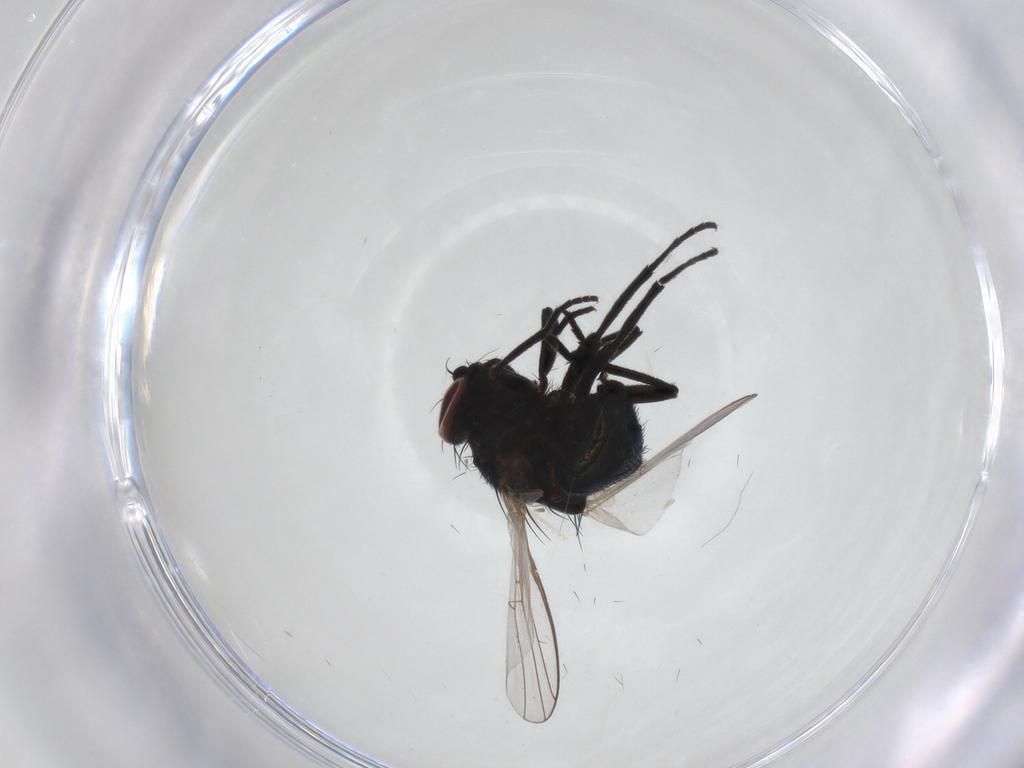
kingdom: Animalia
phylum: Arthropoda
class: Insecta
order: Diptera
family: Agromyzidae
